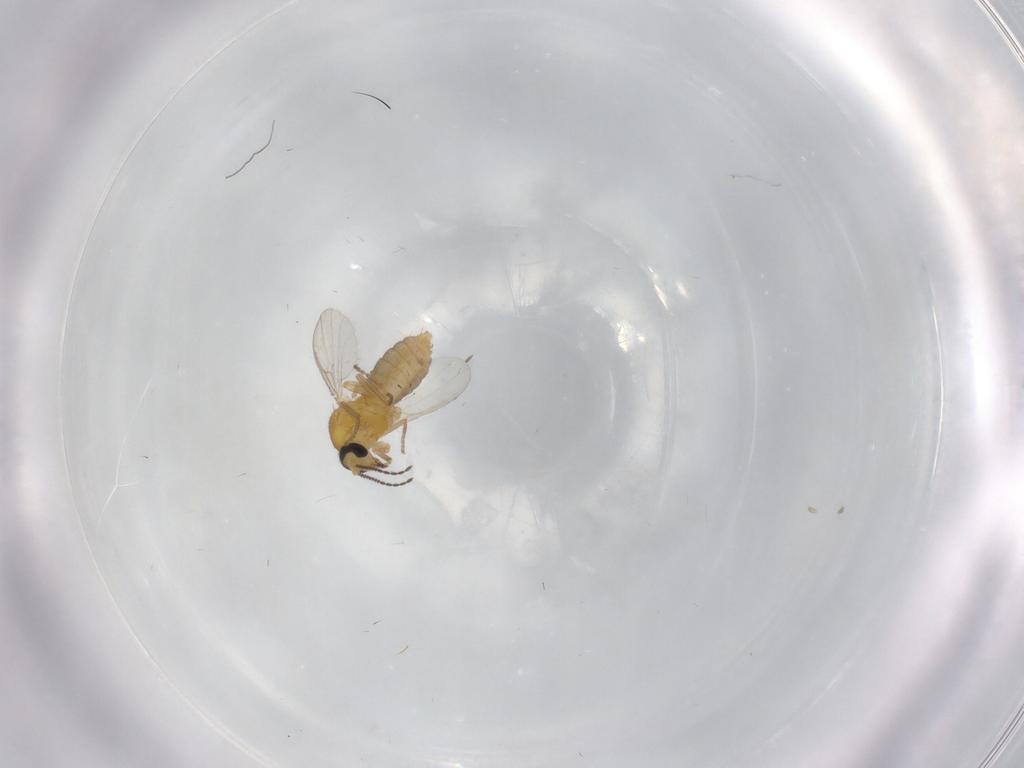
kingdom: Animalia
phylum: Arthropoda
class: Insecta
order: Diptera
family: Ceratopogonidae
